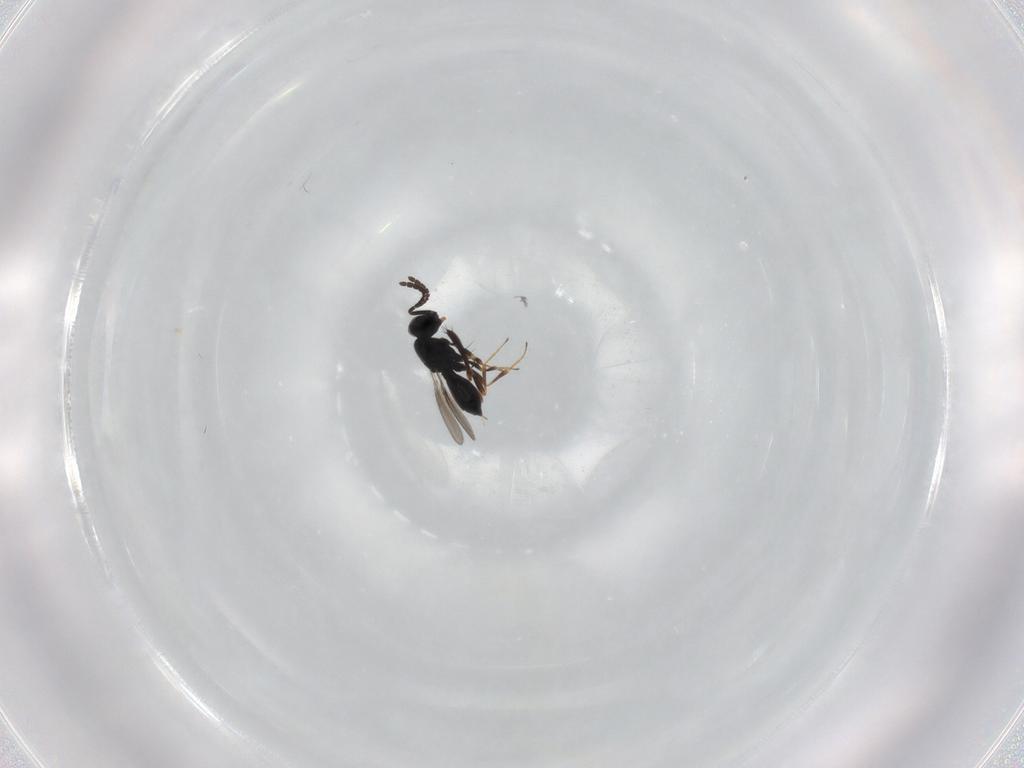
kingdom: Animalia
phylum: Arthropoda
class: Insecta
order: Hymenoptera
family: Scelionidae
